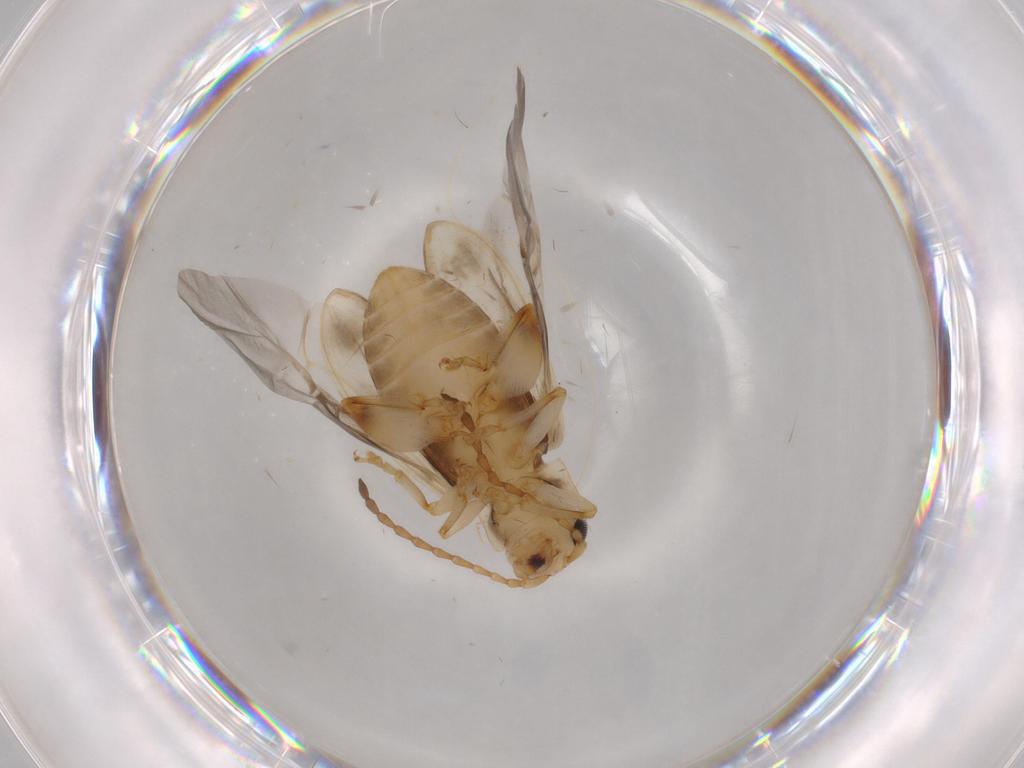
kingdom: Animalia
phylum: Arthropoda
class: Insecta
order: Coleoptera
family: Chrysomelidae
